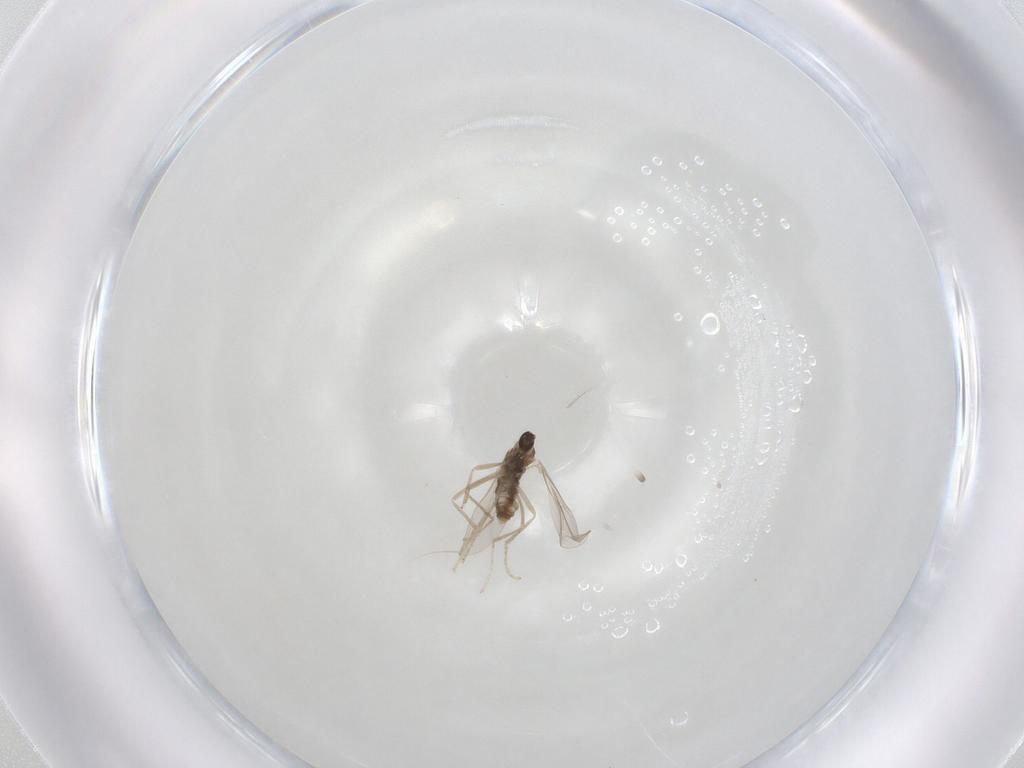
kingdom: Animalia
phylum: Arthropoda
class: Insecta
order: Diptera
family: Cecidomyiidae
